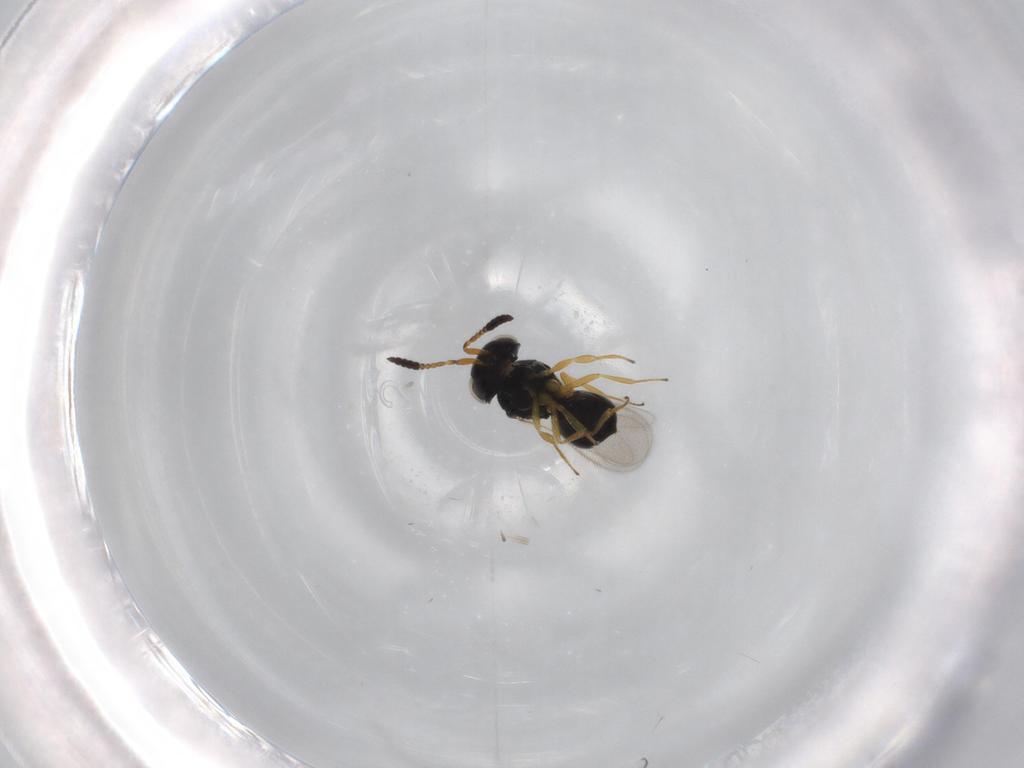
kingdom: Animalia
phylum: Arthropoda
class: Insecta
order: Hymenoptera
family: Scelionidae
